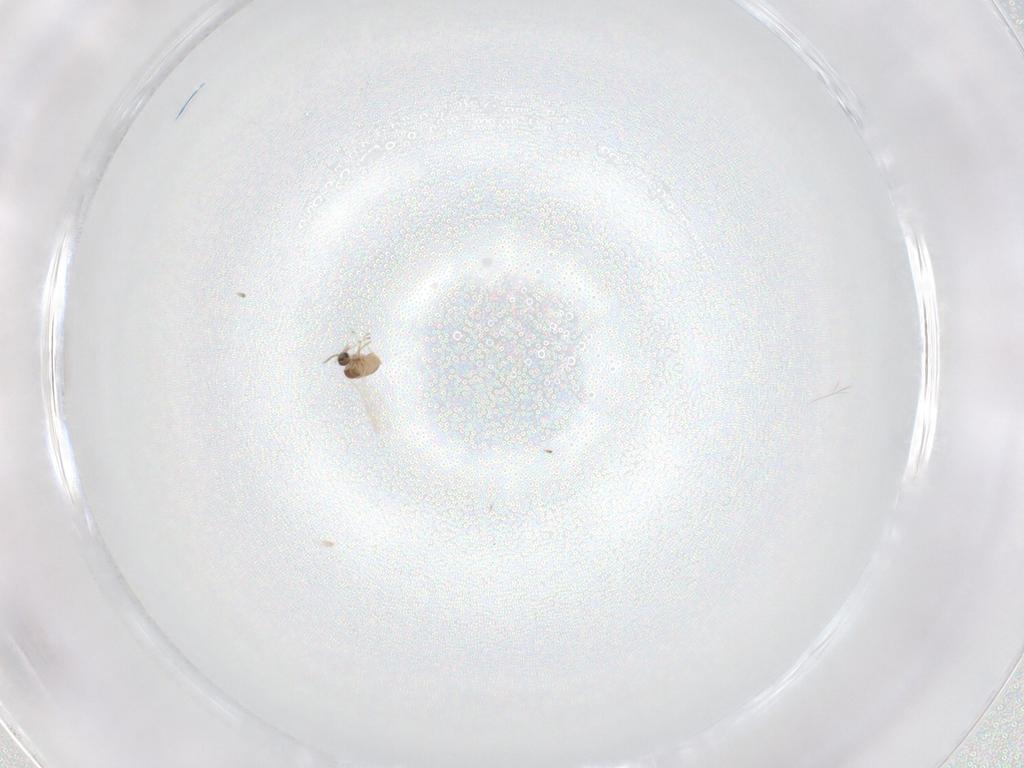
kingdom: Animalia
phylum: Arthropoda
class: Insecta
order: Diptera
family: Cecidomyiidae
